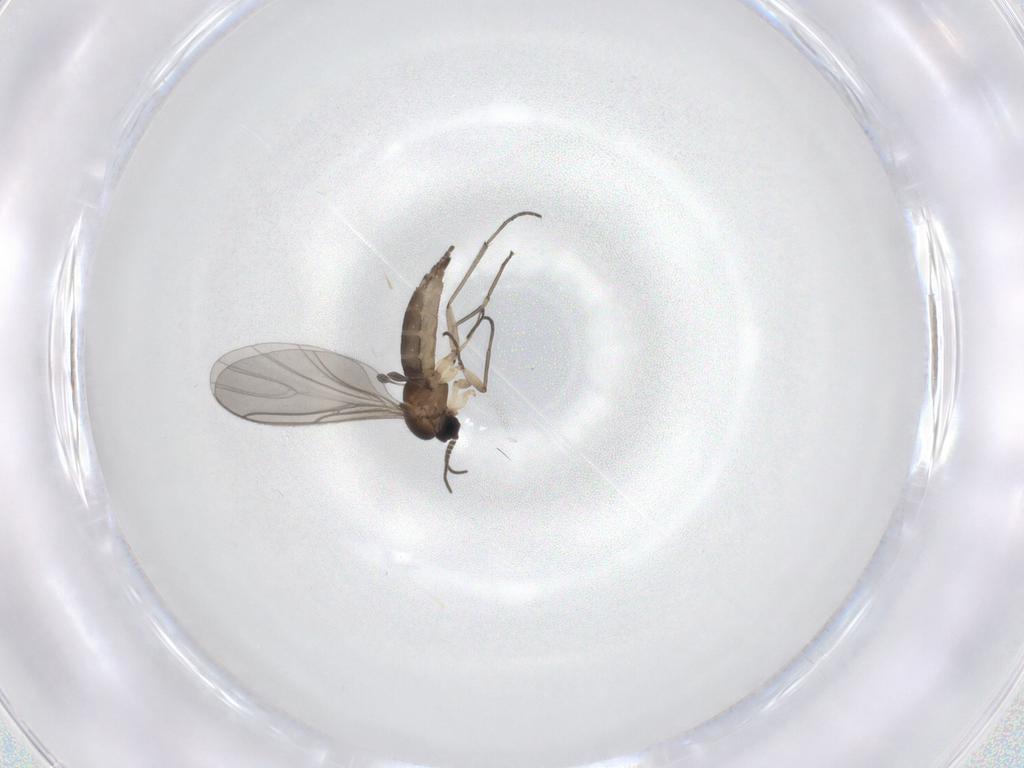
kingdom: Animalia
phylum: Arthropoda
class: Insecta
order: Diptera
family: Sciaridae
